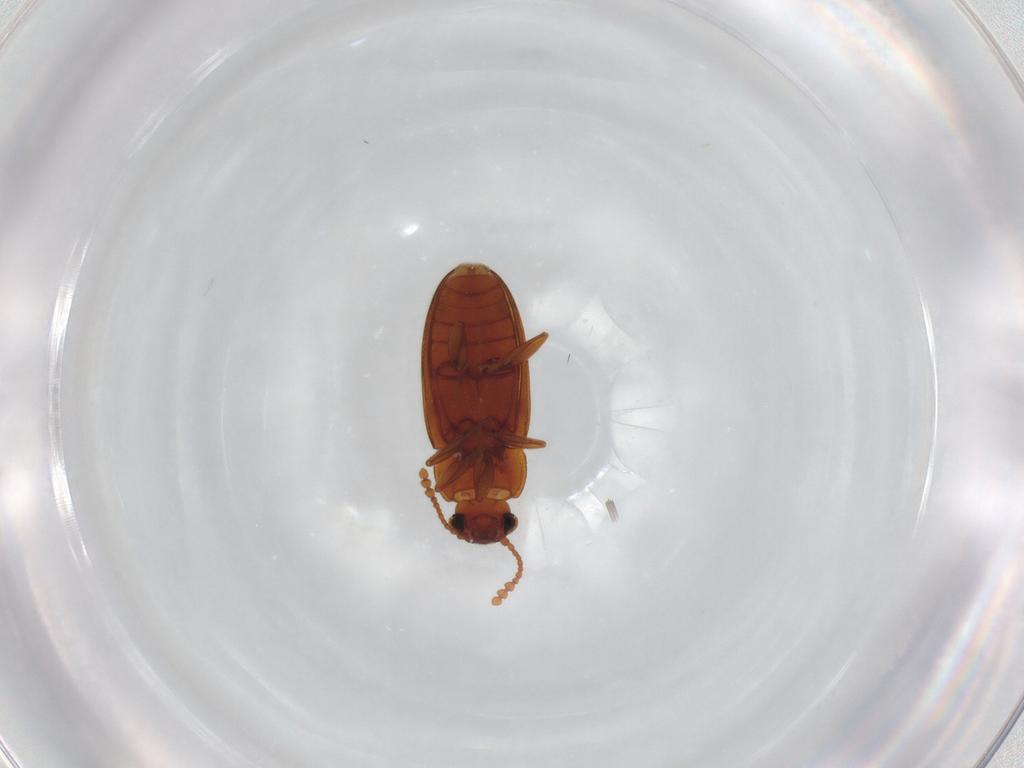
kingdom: Animalia
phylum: Arthropoda
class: Insecta
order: Coleoptera
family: Erotylidae
